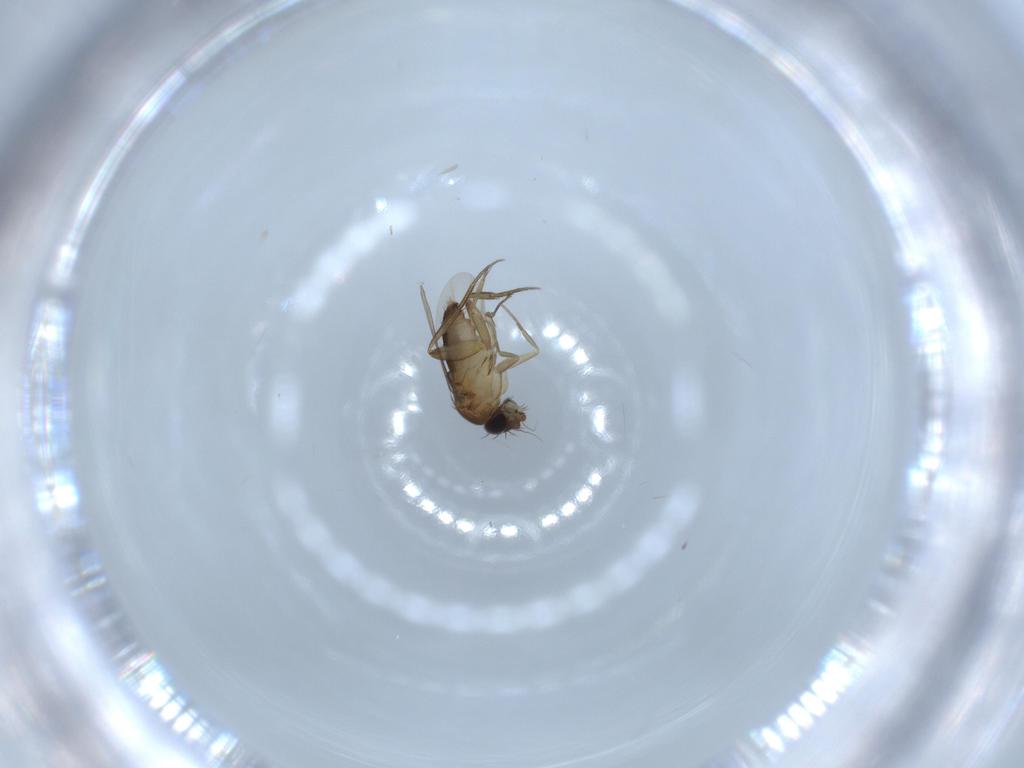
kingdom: Animalia
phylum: Arthropoda
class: Insecta
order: Diptera
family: Phoridae
